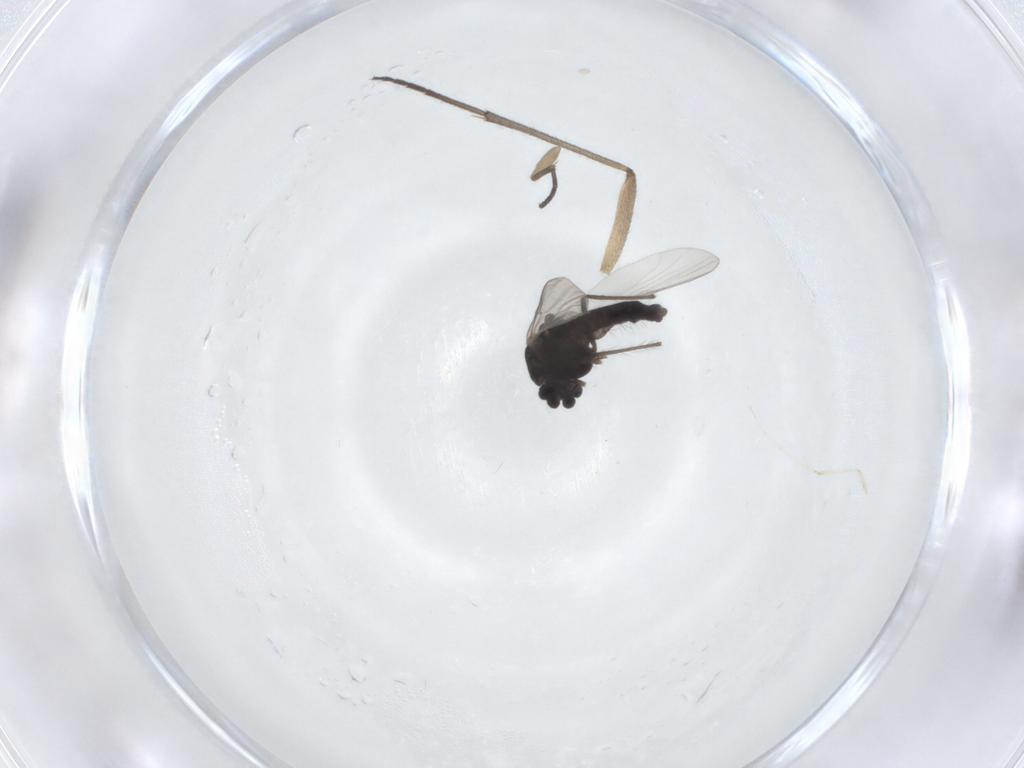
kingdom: Animalia
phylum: Arthropoda
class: Insecta
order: Diptera
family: Sciaridae
